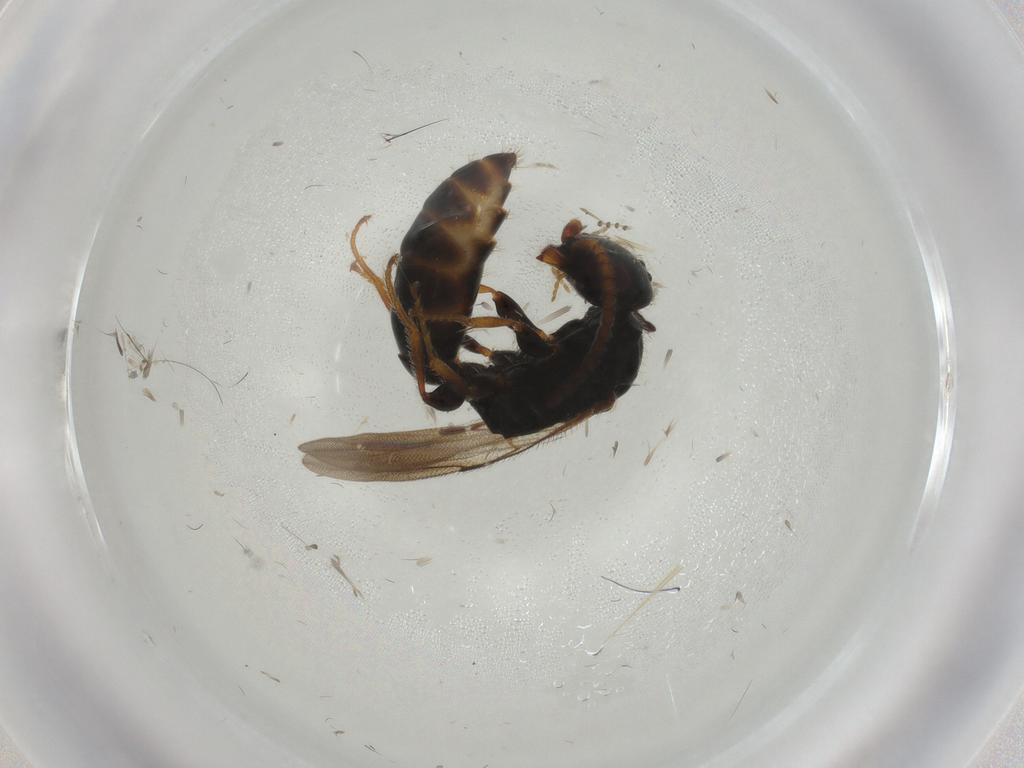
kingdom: Animalia
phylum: Arthropoda
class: Insecta
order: Hymenoptera
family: Bethylidae
